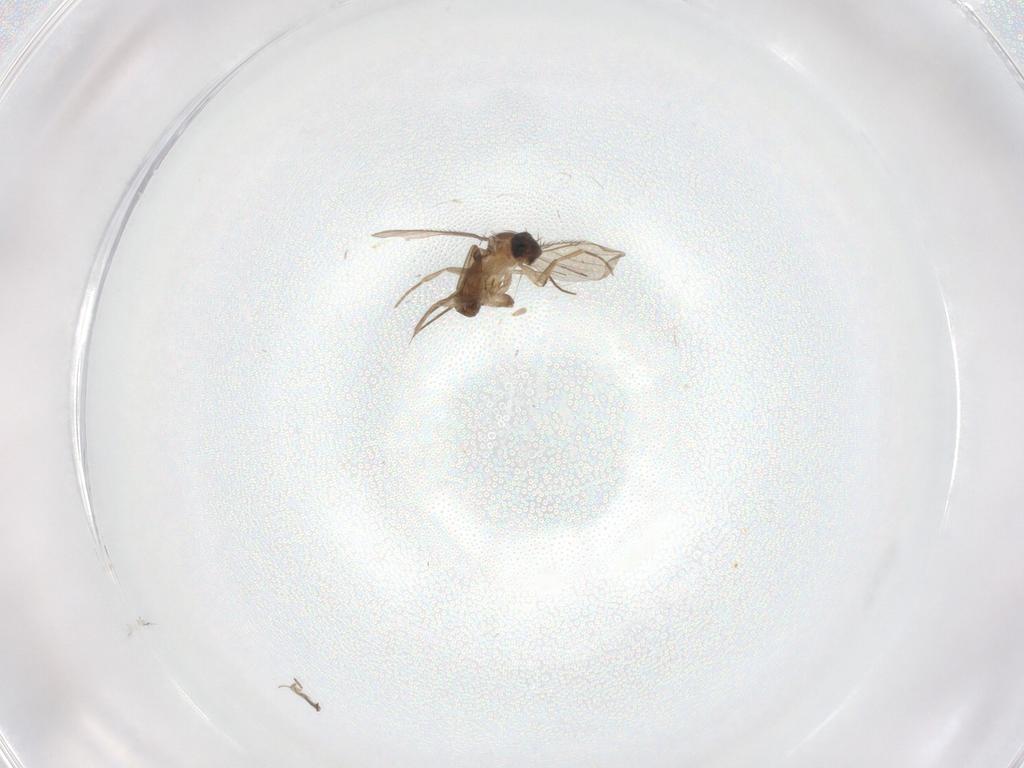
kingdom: Animalia
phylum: Arthropoda
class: Insecta
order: Diptera
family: Phoridae
